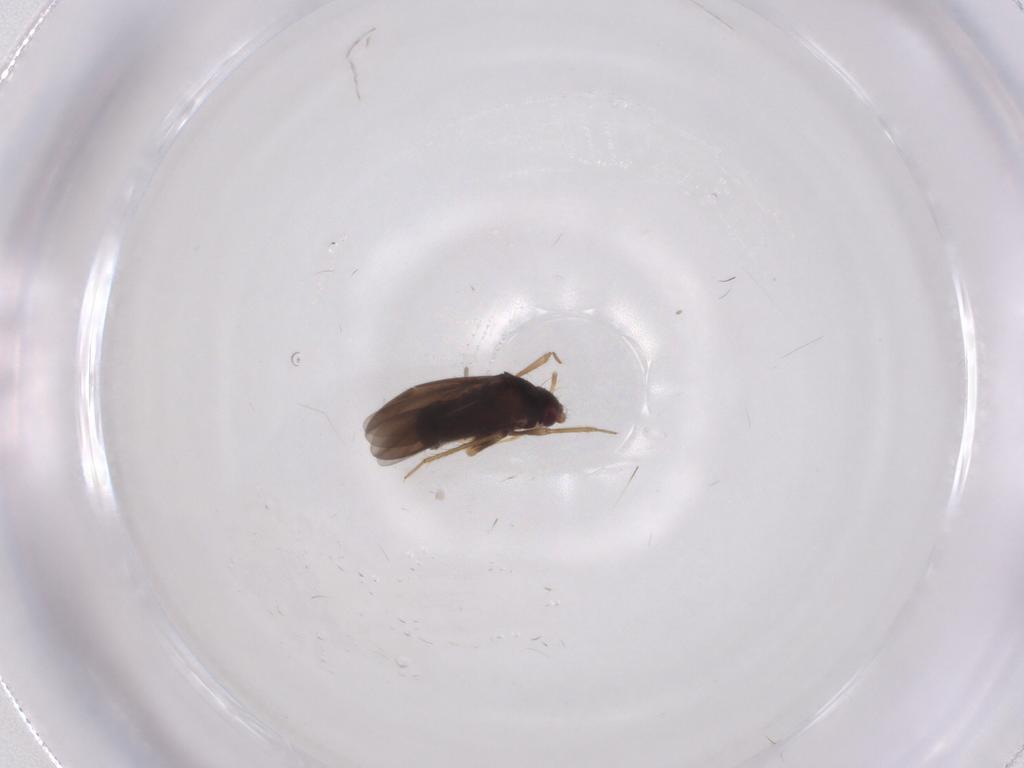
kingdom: Animalia
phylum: Arthropoda
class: Insecta
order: Hemiptera
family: Ceratocombidae
